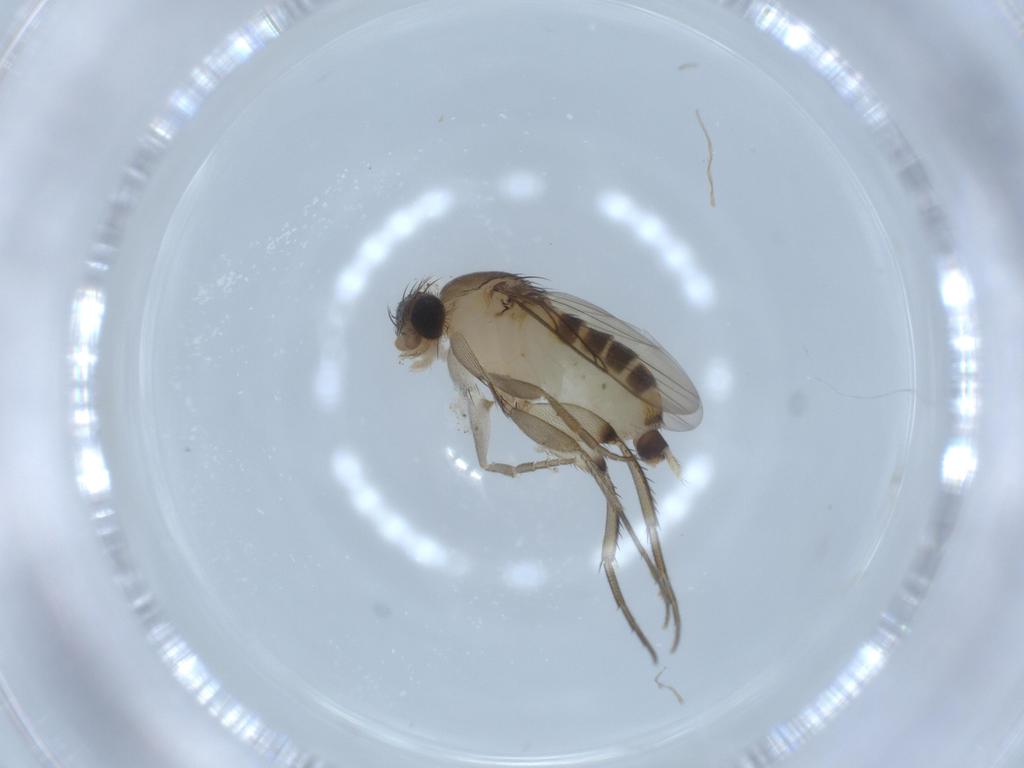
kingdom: Animalia
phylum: Arthropoda
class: Insecta
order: Diptera
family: Phoridae
